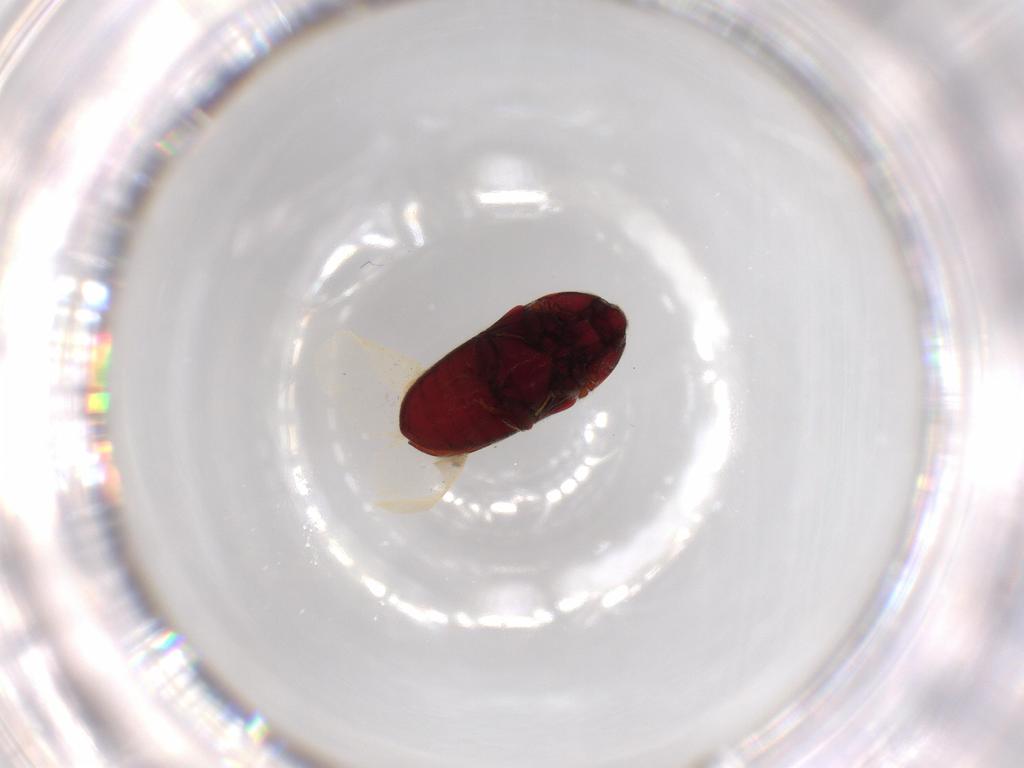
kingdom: Animalia
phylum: Arthropoda
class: Insecta
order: Coleoptera
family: Throscidae
